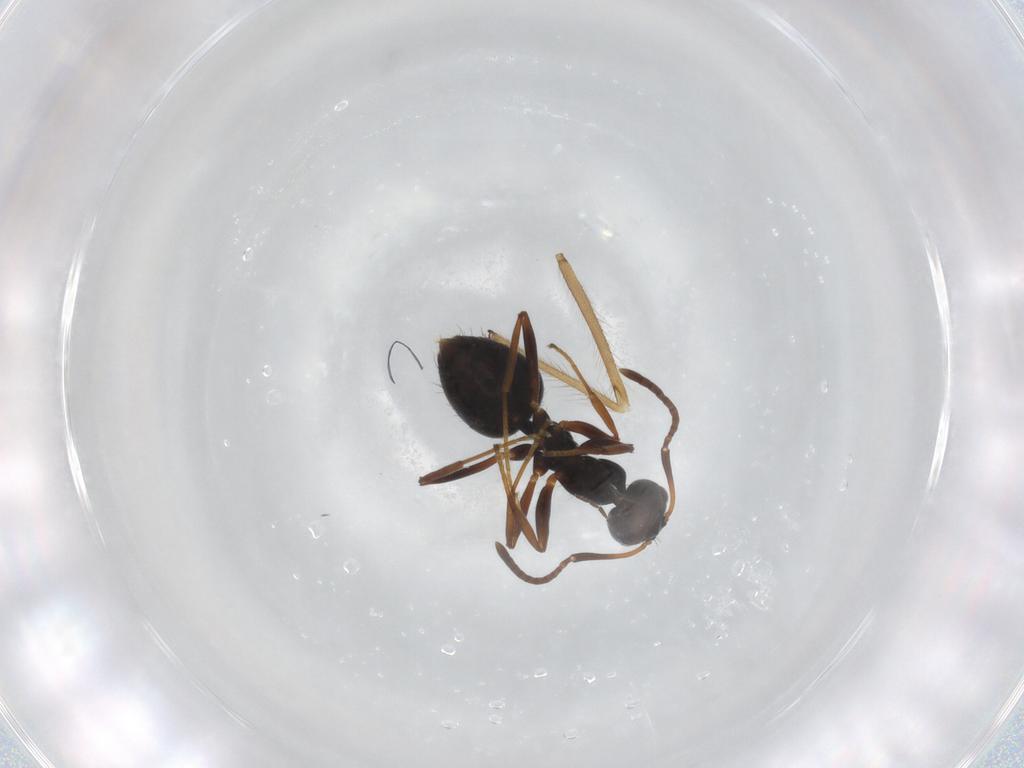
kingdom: Animalia
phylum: Arthropoda
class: Insecta
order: Hymenoptera
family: Formicidae
